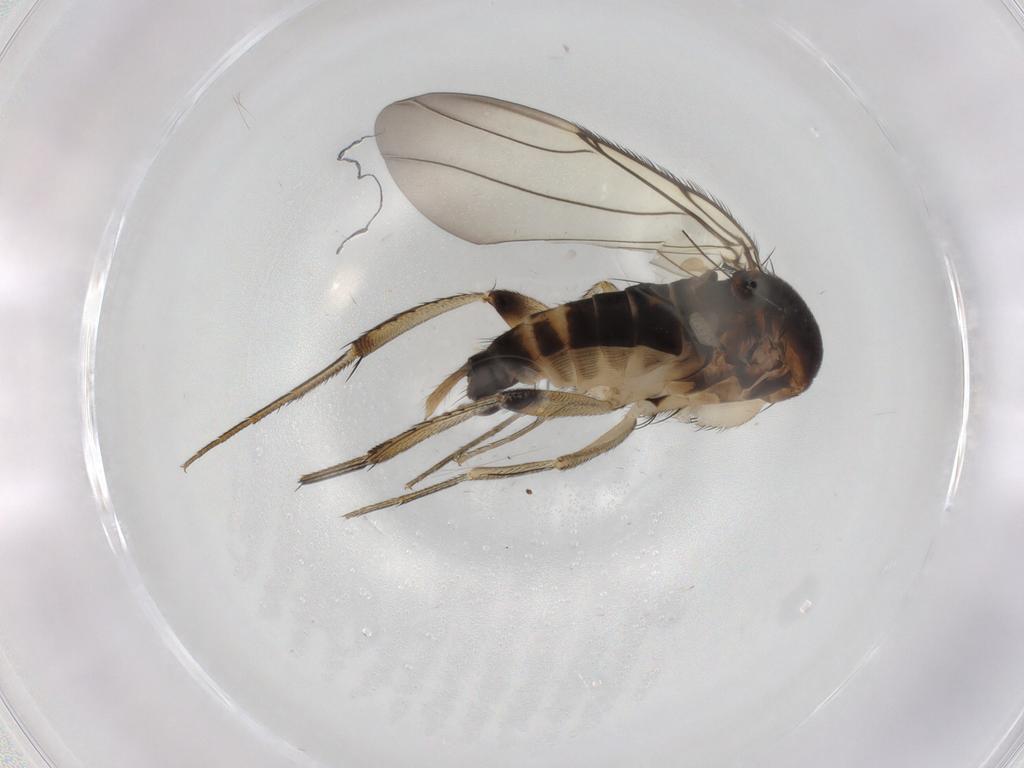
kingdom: Animalia
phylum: Arthropoda
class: Insecta
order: Diptera
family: Phoridae
